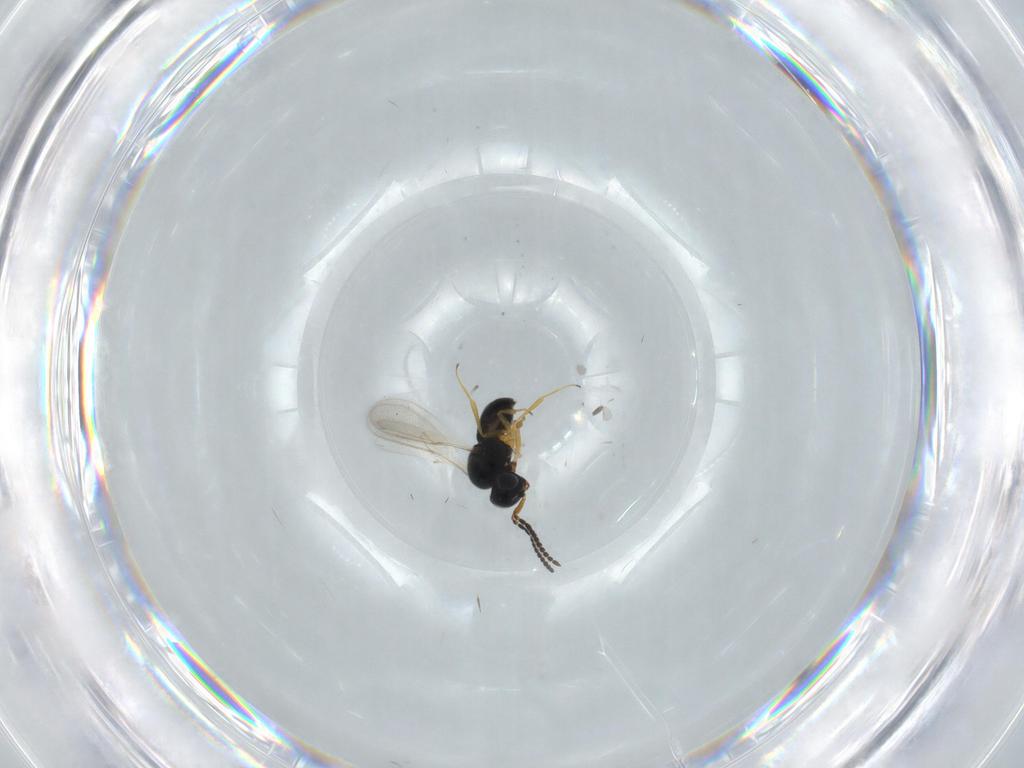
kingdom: Animalia
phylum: Arthropoda
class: Insecta
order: Hymenoptera
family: Scelionidae
